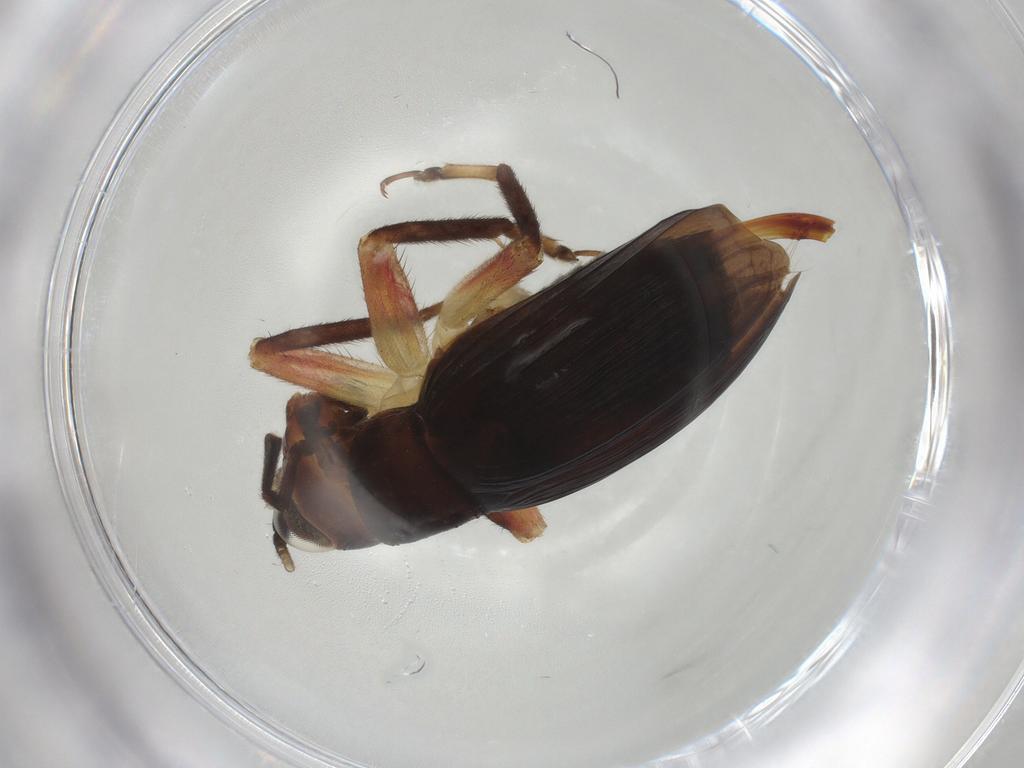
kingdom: Animalia
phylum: Arthropoda
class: Insecta
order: Orthoptera
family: Trigonidiidae
